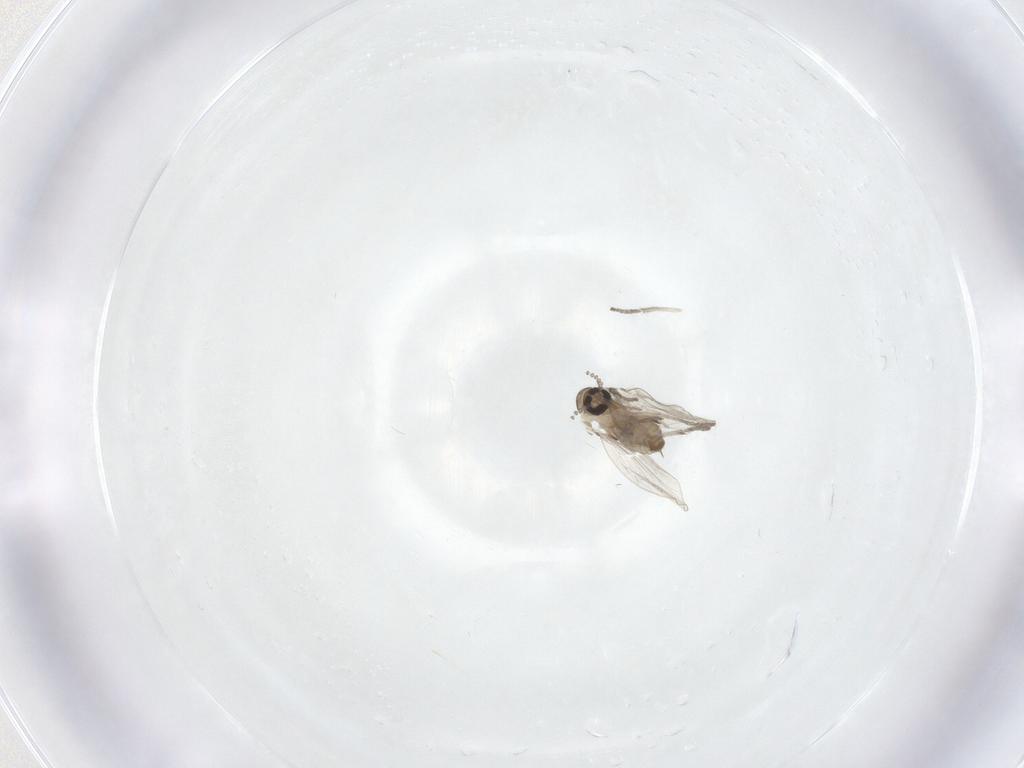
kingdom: Animalia
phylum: Arthropoda
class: Insecta
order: Diptera
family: Psychodidae
